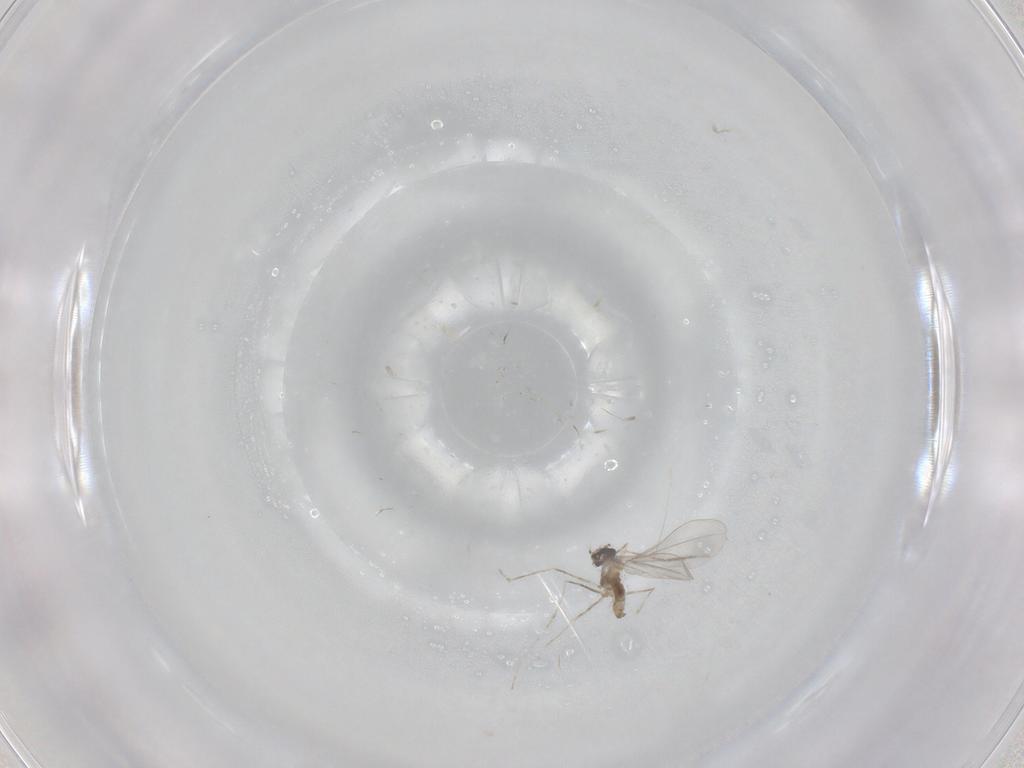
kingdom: Animalia
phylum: Arthropoda
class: Insecta
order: Diptera
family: Cecidomyiidae
